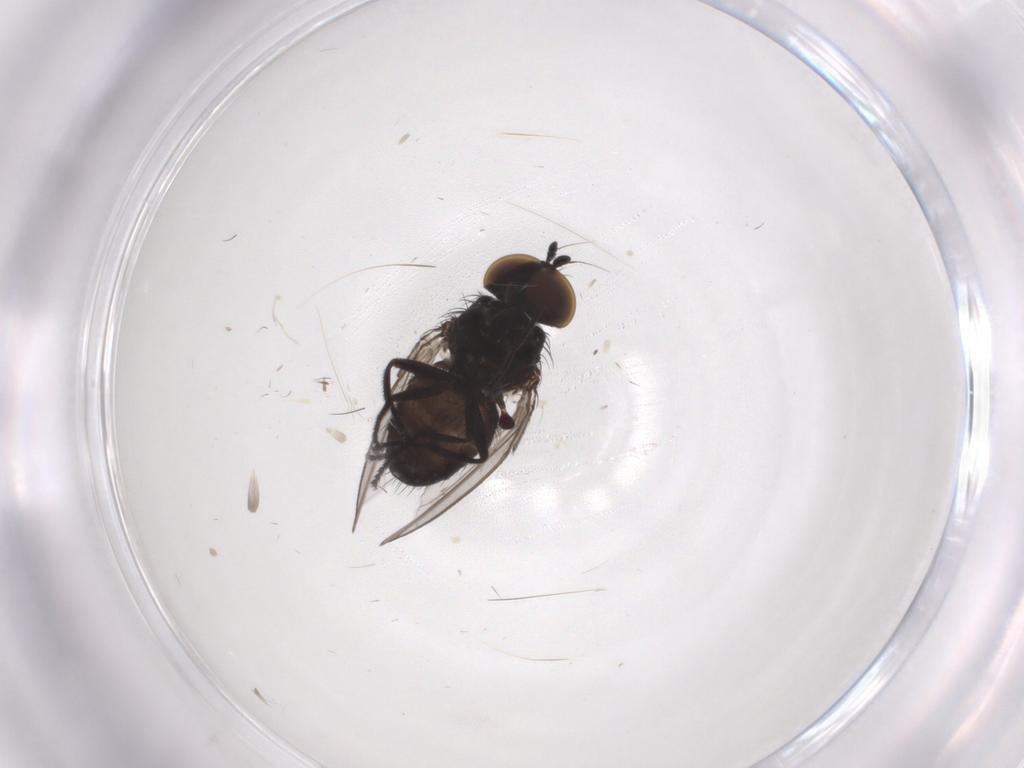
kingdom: Animalia
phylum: Arthropoda
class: Insecta
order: Diptera
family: Milichiidae
